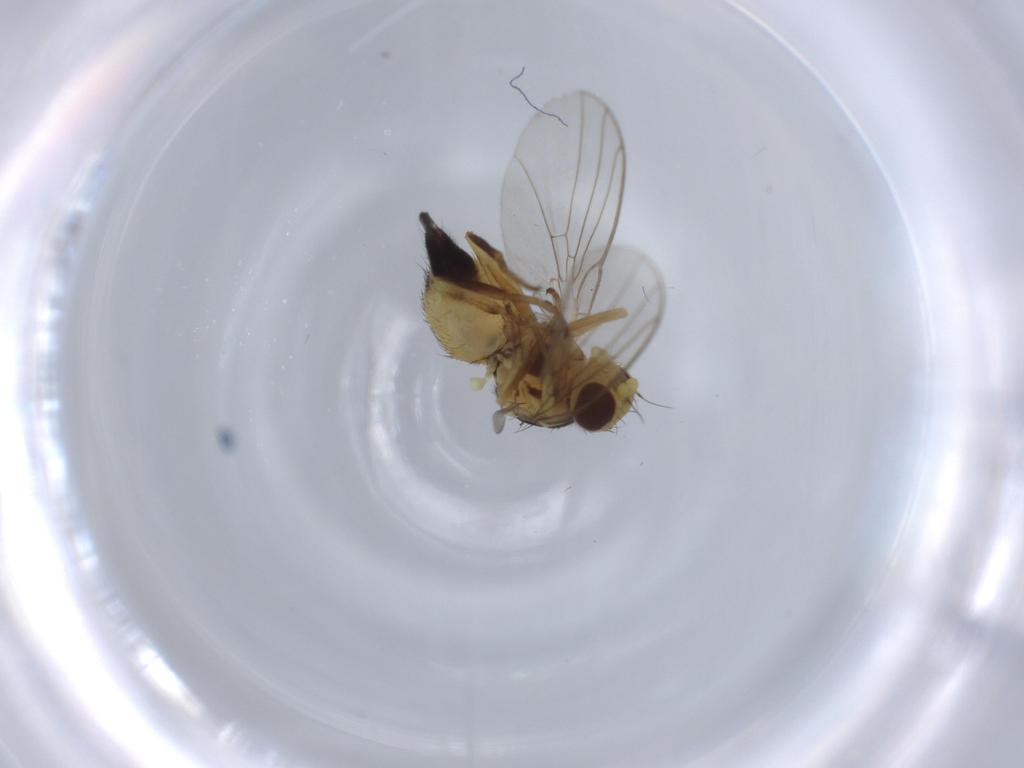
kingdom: Animalia
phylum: Arthropoda
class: Insecta
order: Diptera
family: Agromyzidae
